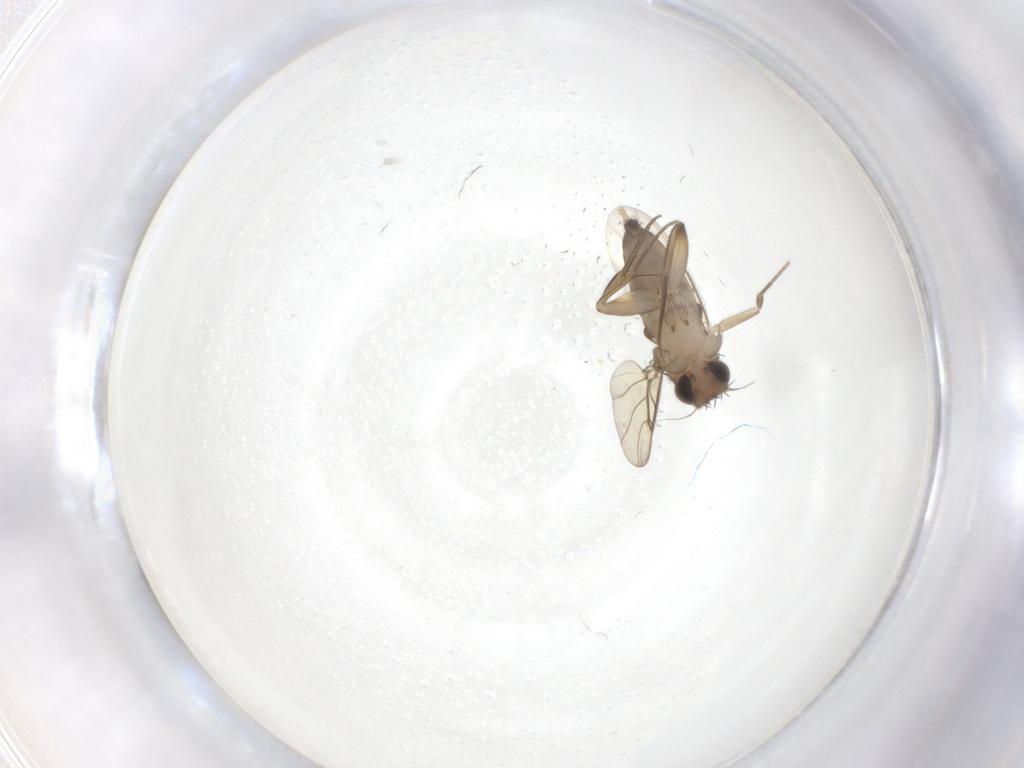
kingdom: Animalia
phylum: Arthropoda
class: Insecta
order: Diptera
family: Phoridae
